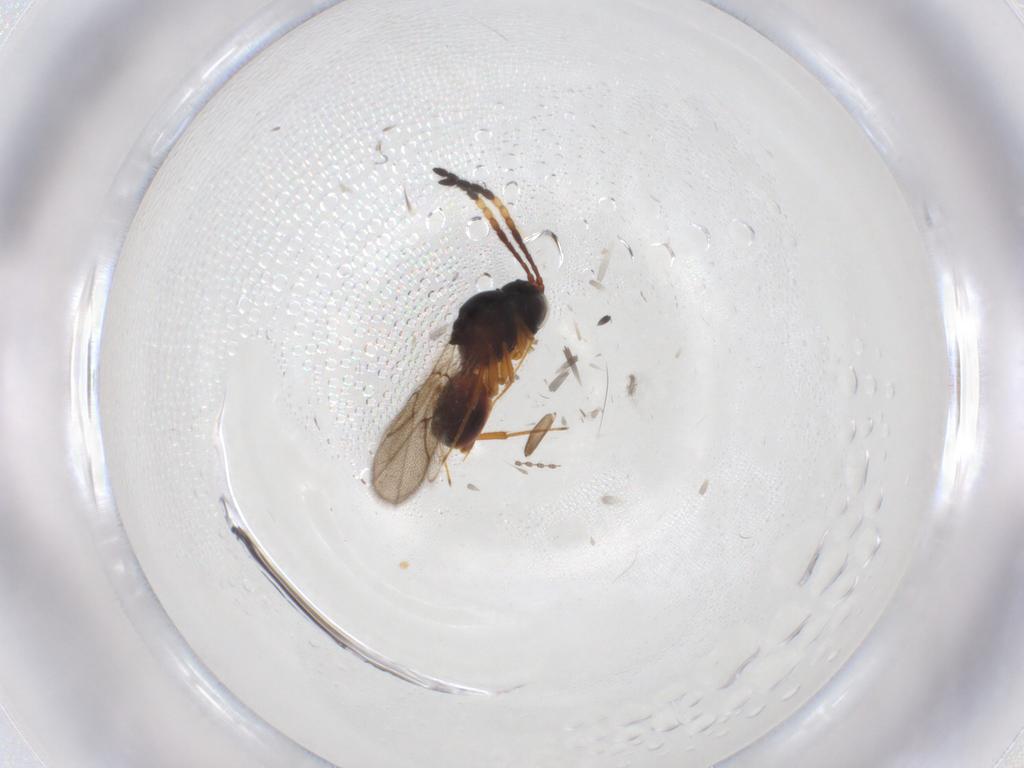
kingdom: Animalia
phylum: Arthropoda
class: Insecta
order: Hymenoptera
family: Figitidae
